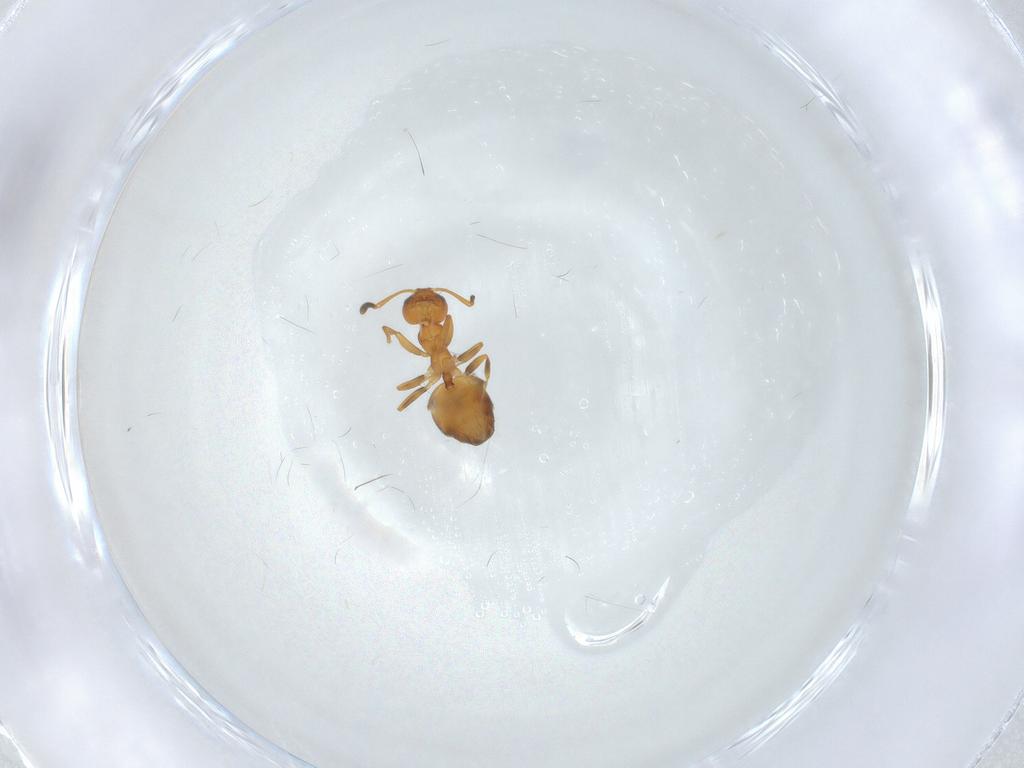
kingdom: Animalia
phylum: Arthropoda
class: Insecta
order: Hymenoptera
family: Formicidae
